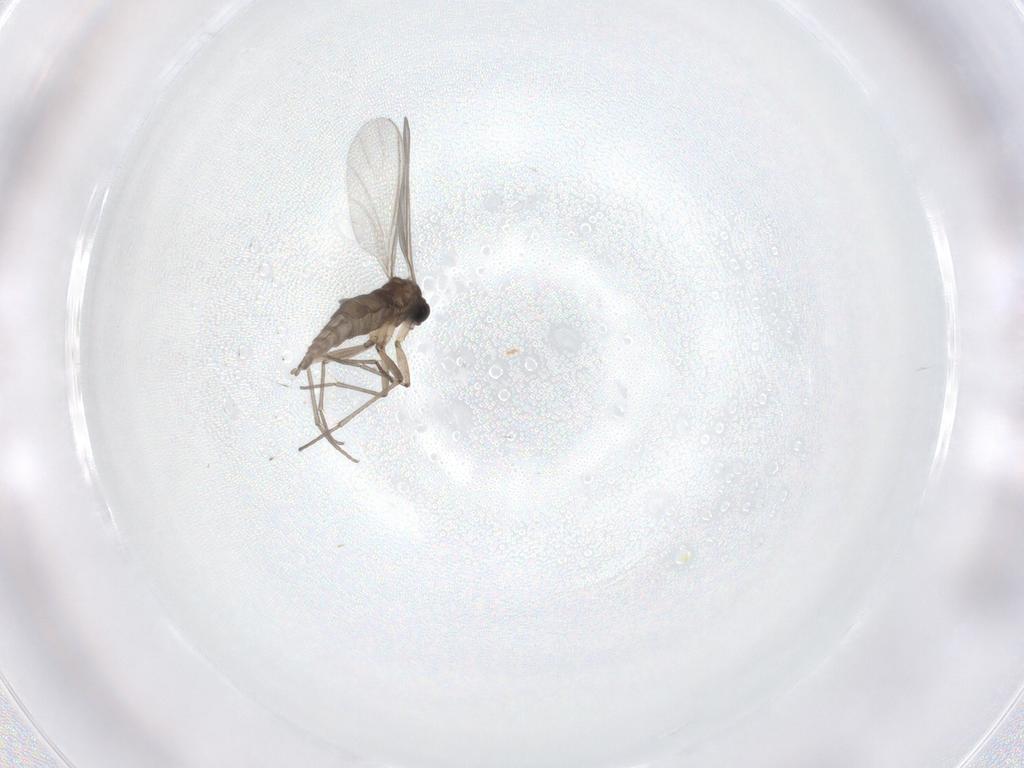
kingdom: Animalia
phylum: Arthropoda
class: Insecta
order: Diptera
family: Sciaridae
